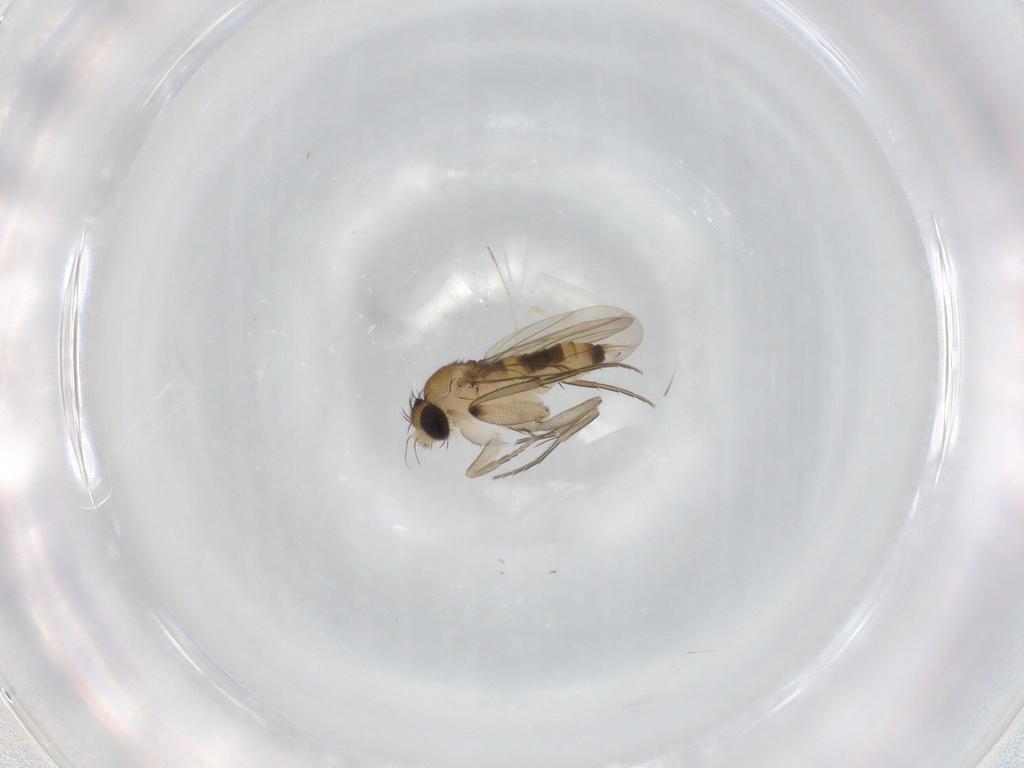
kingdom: Animalia
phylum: Arthropoda
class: Insecta
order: Diptera
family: Phoridae
